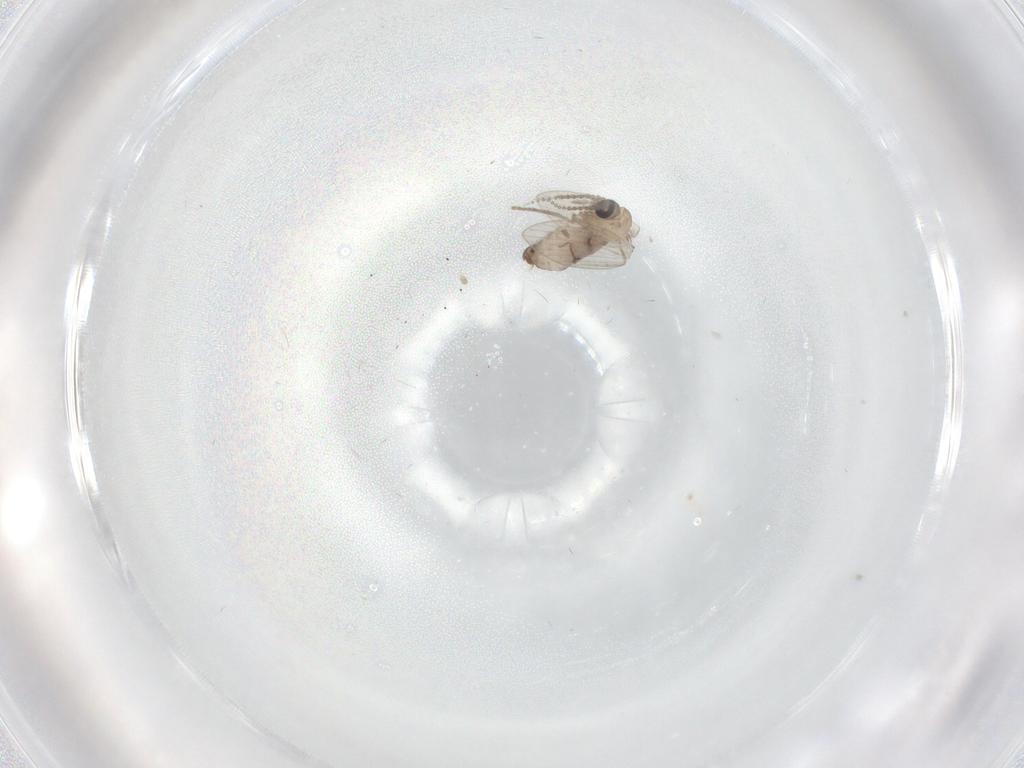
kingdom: Animalia
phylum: Arthropoda
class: Insecta
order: Diptera
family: Psychodidae
